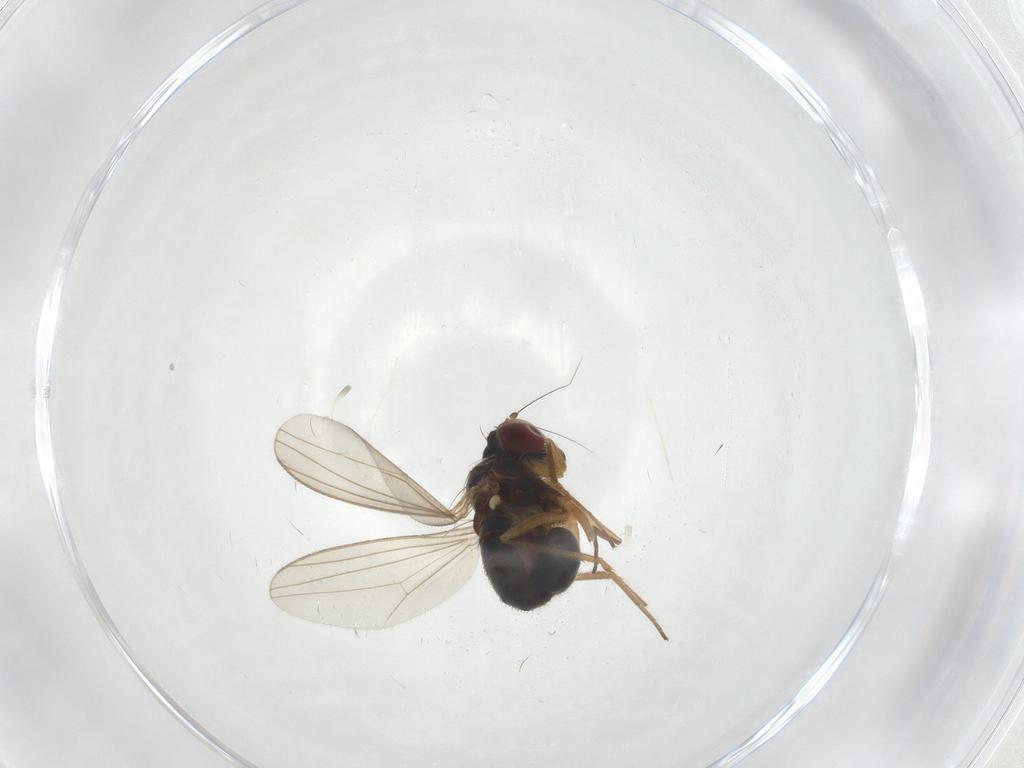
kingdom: Animalia
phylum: Arthropoda
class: Insecta
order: Diptera
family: Dolichopodidae
